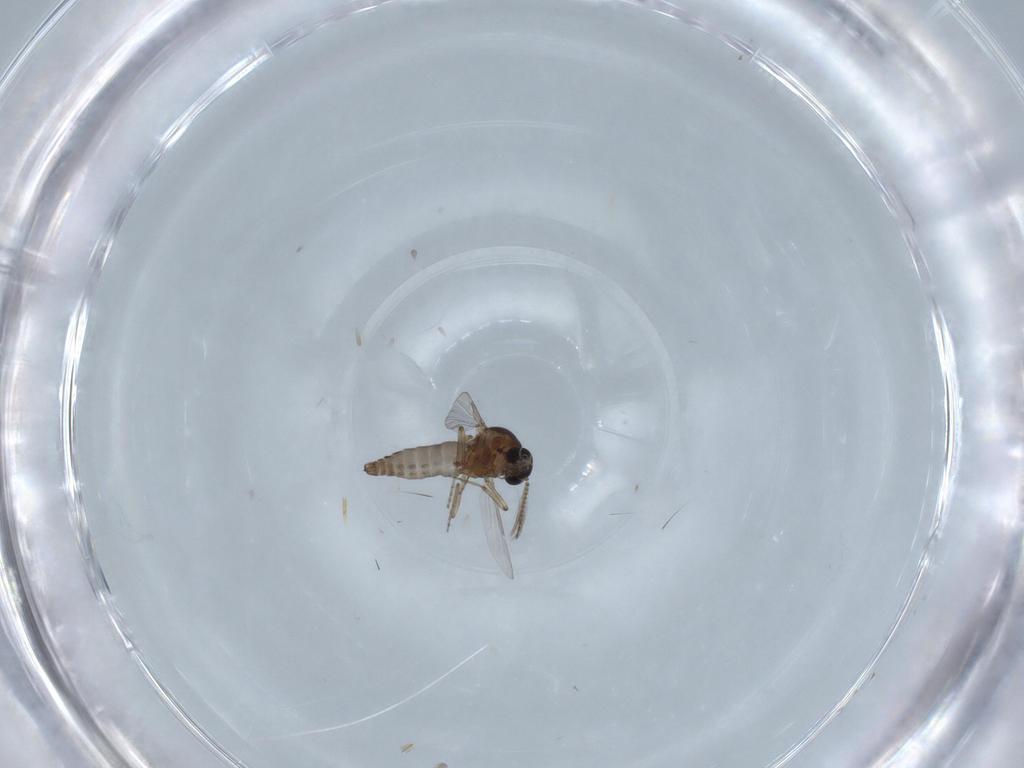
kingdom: Animalia
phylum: Arthropoda
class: Insecta
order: Diptera
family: Ceratopogonidae
